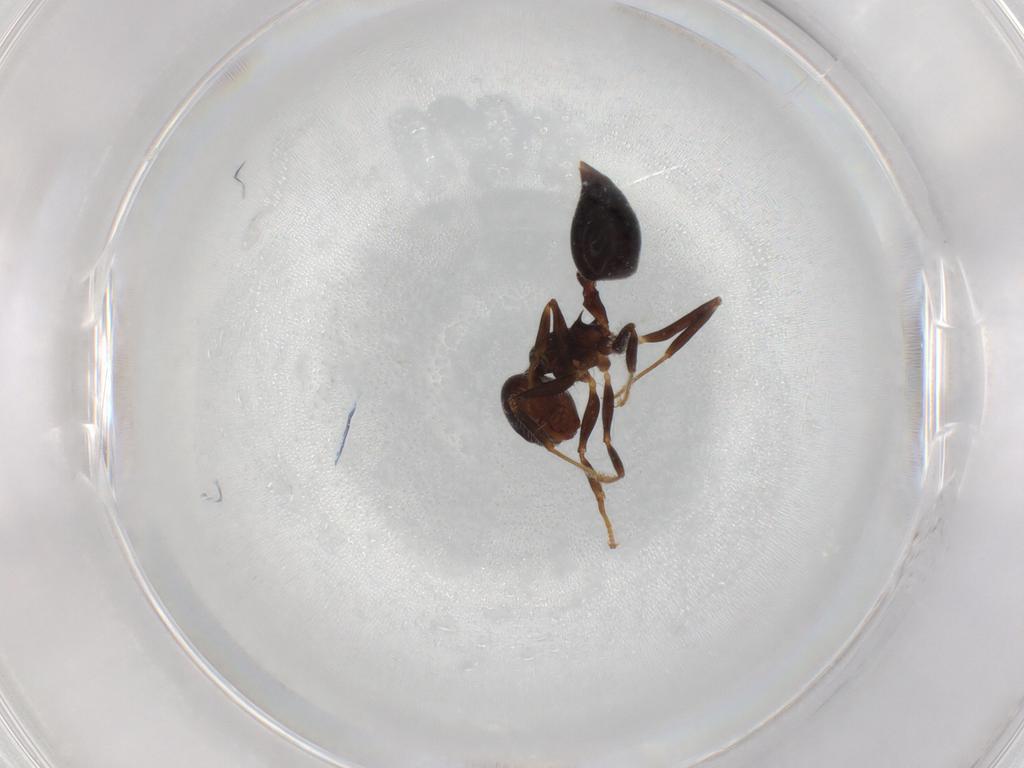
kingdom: Animalia
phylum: Arthropoda
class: Insecta
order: Hymenoptera
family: Formicidae
